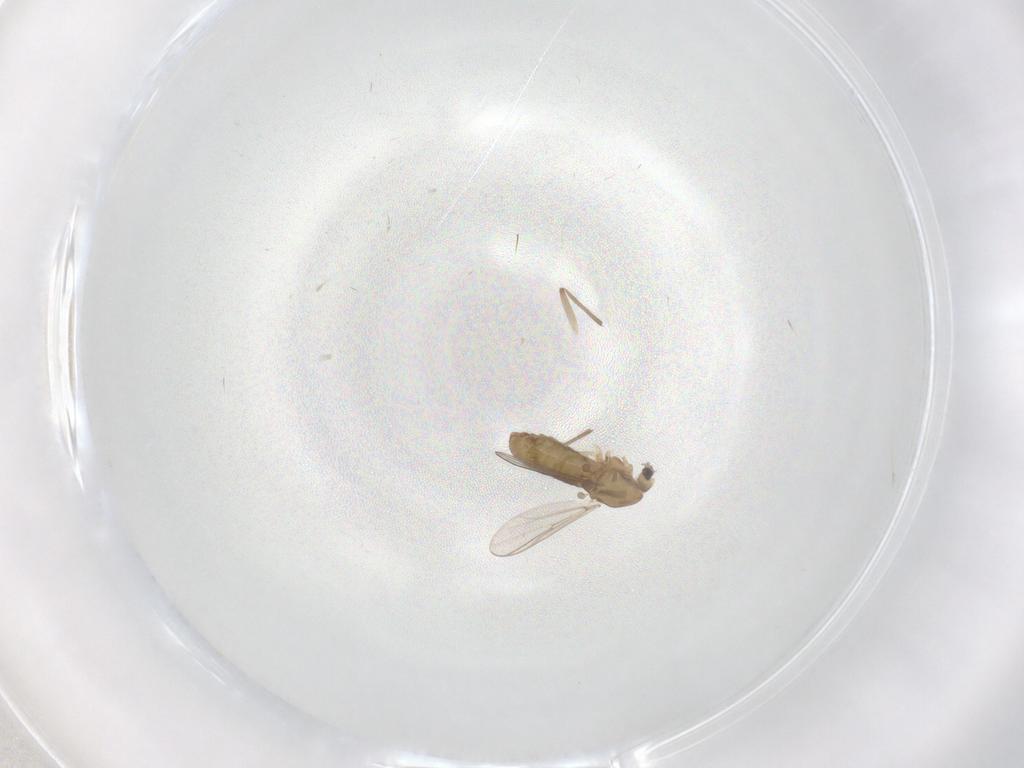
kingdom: Animalia
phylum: Arthropoda
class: Insecta
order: Diptera
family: Chironomidae
